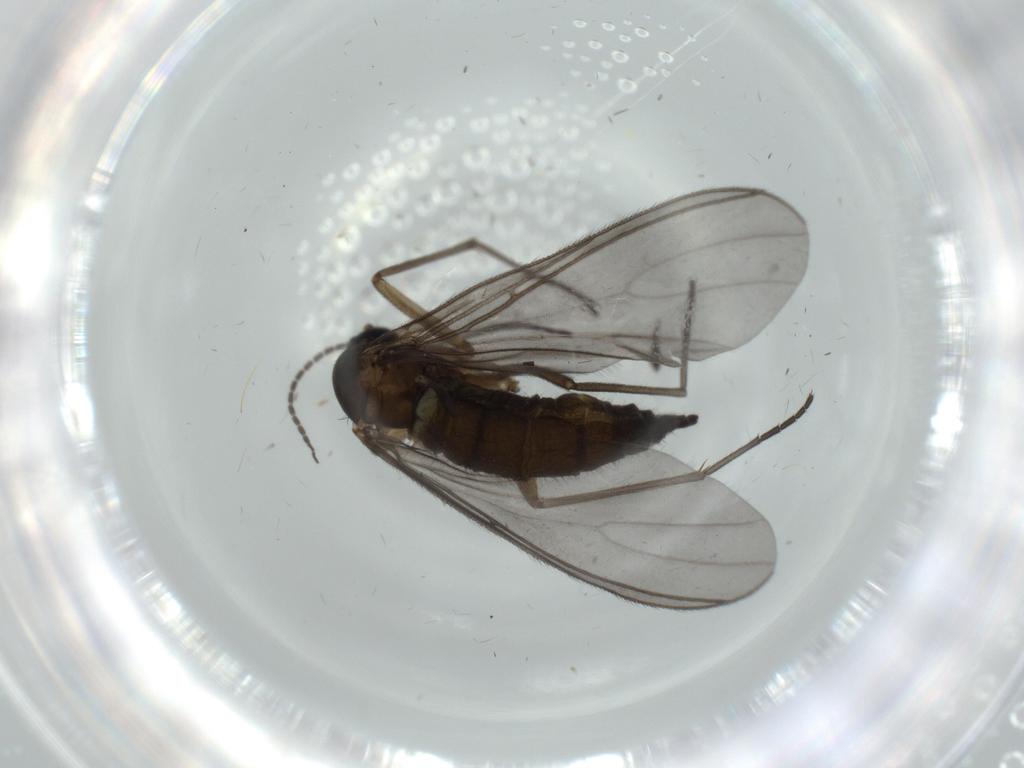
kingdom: Animalia
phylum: Arthropoda
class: Insecta
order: Diptera
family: Sciaridae
